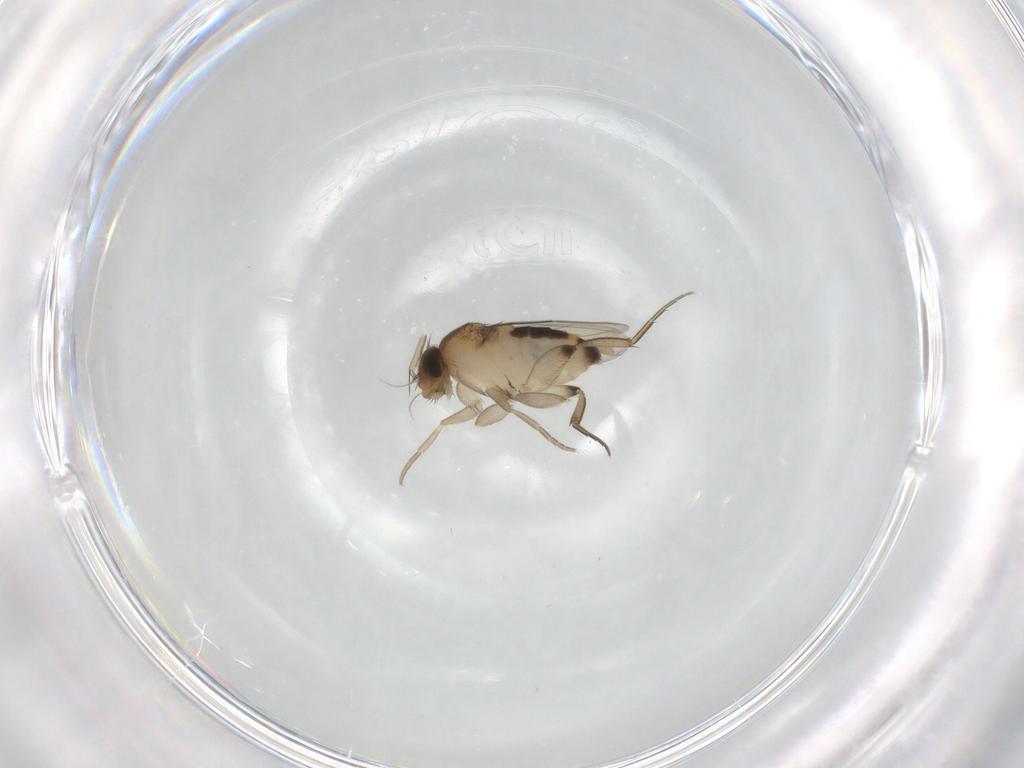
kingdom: Animalia
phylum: Arthropoda
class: Insecta
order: Diptera
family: Phoridae
